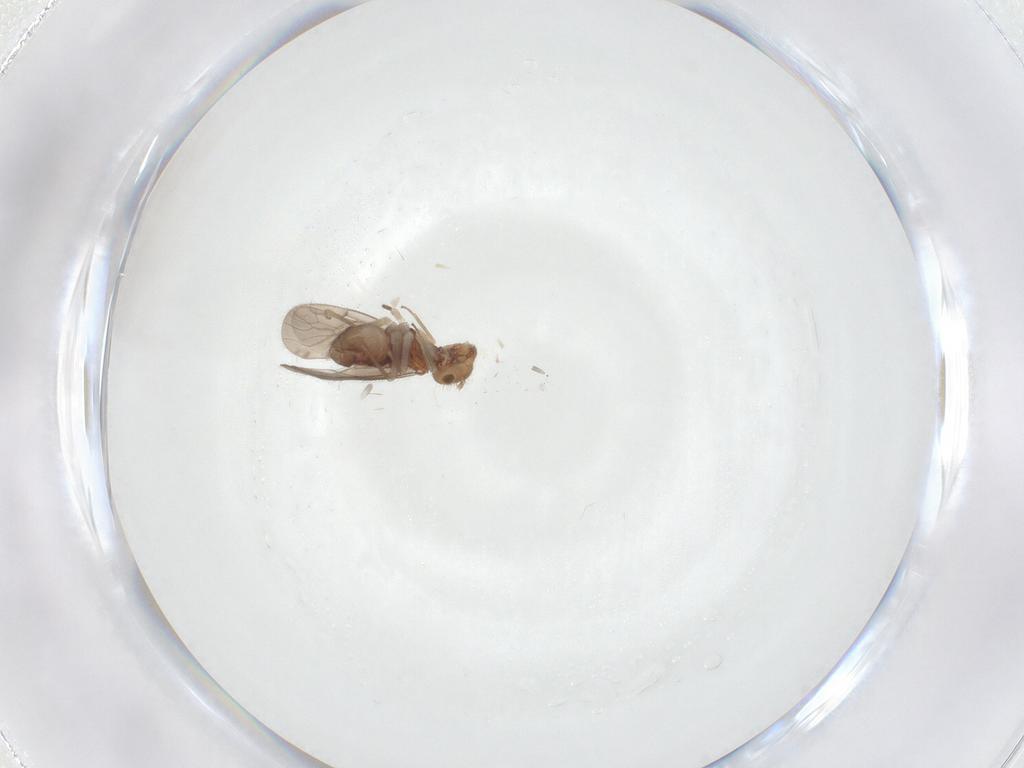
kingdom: Animalia
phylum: Arthropoda
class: Insecta
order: Psocodea
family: Ectopsocidae
